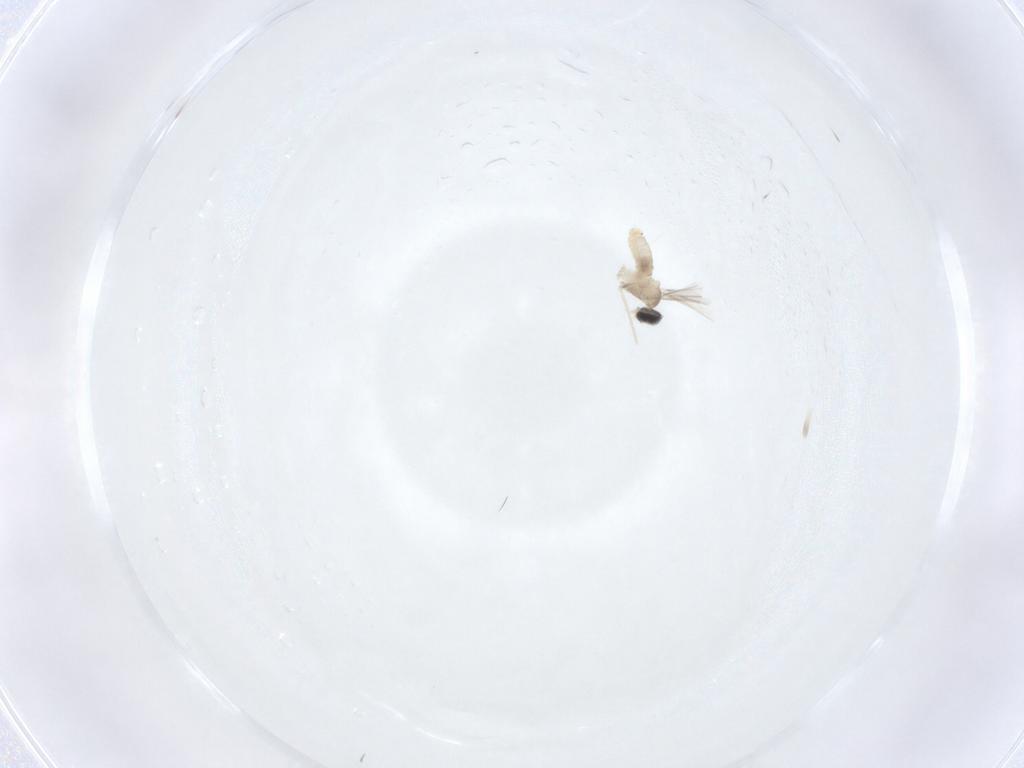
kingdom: Animalia
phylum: Arthropoda
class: Insecta
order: Diptera
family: Cecidomyiidae
